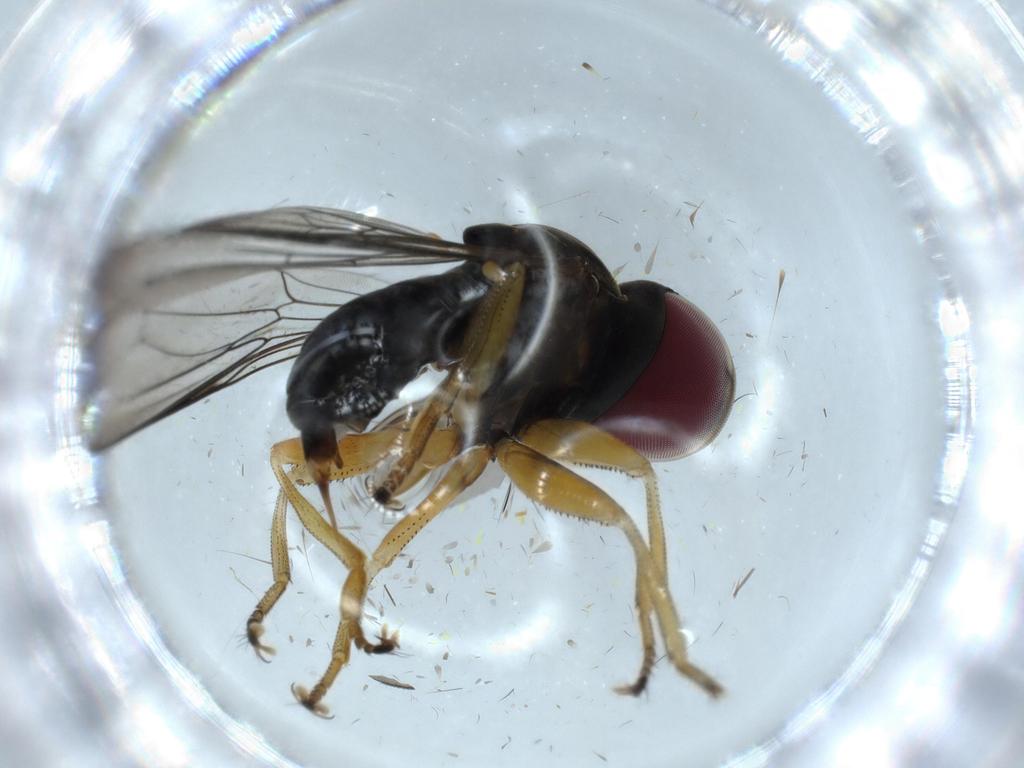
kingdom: Animalia
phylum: Arthropoda
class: Insecta
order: Diptera
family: Sciaridae
